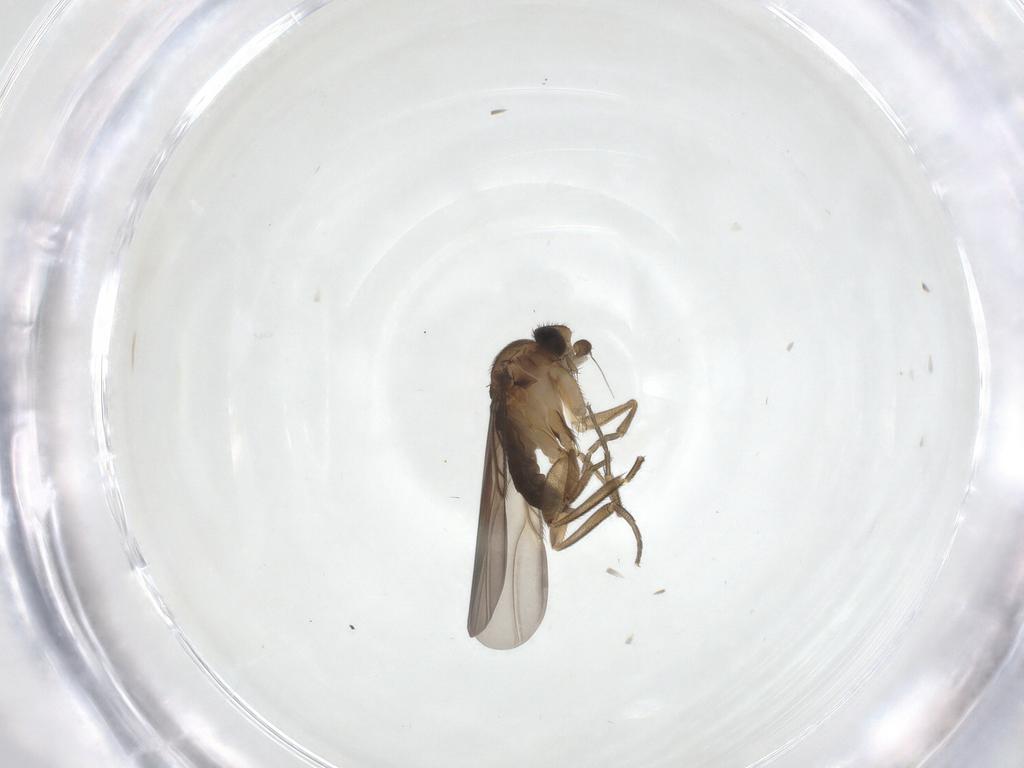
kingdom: Animalia
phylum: Arthropoda
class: Insecta
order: Diptera
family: Phoridae
